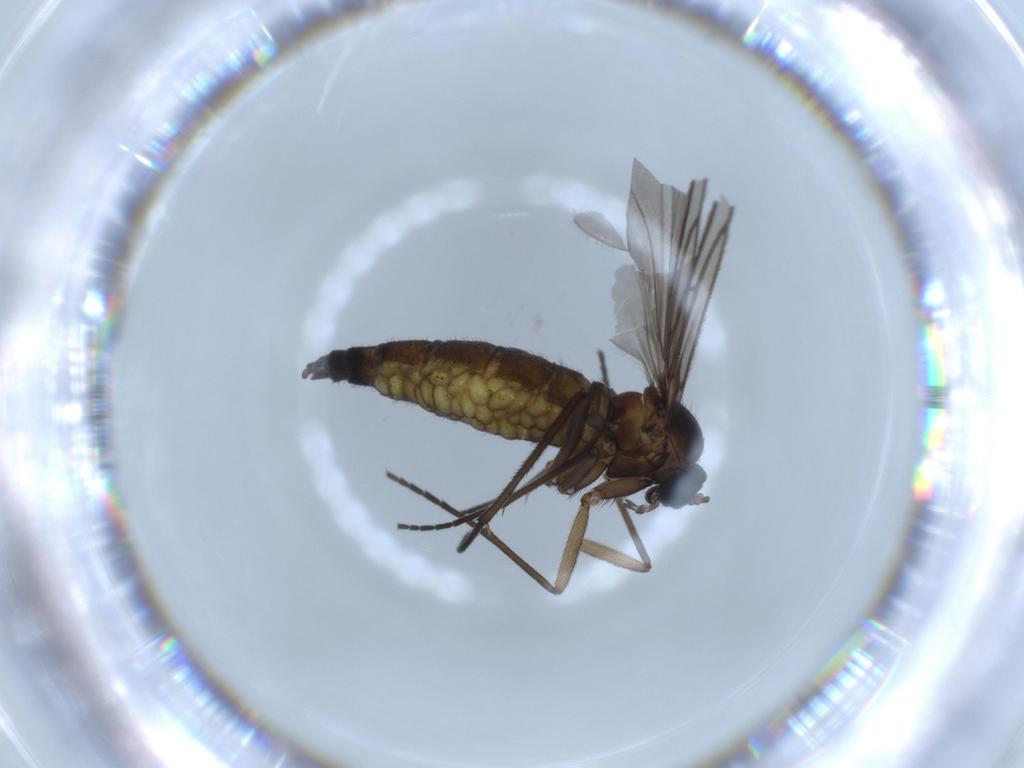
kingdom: Animalia
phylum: Arthropoda
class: Insecta
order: Diptera
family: Sciaridae
